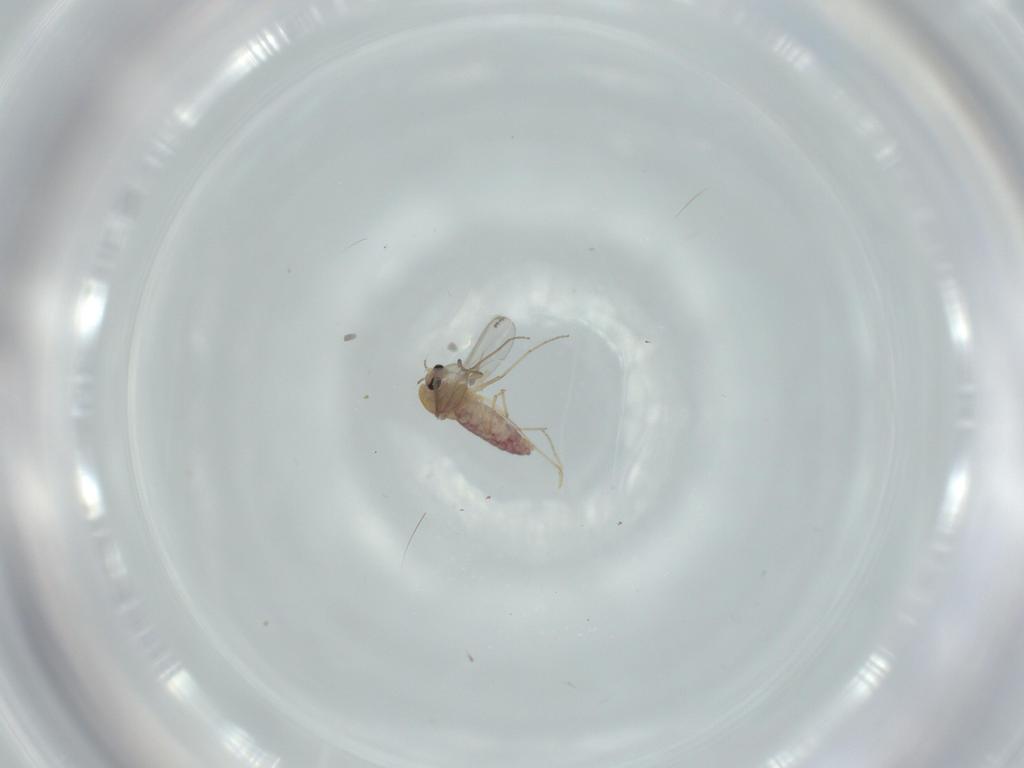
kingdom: Animalia
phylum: Arthropoda
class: Insecta
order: Diptera
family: Chironomidae
